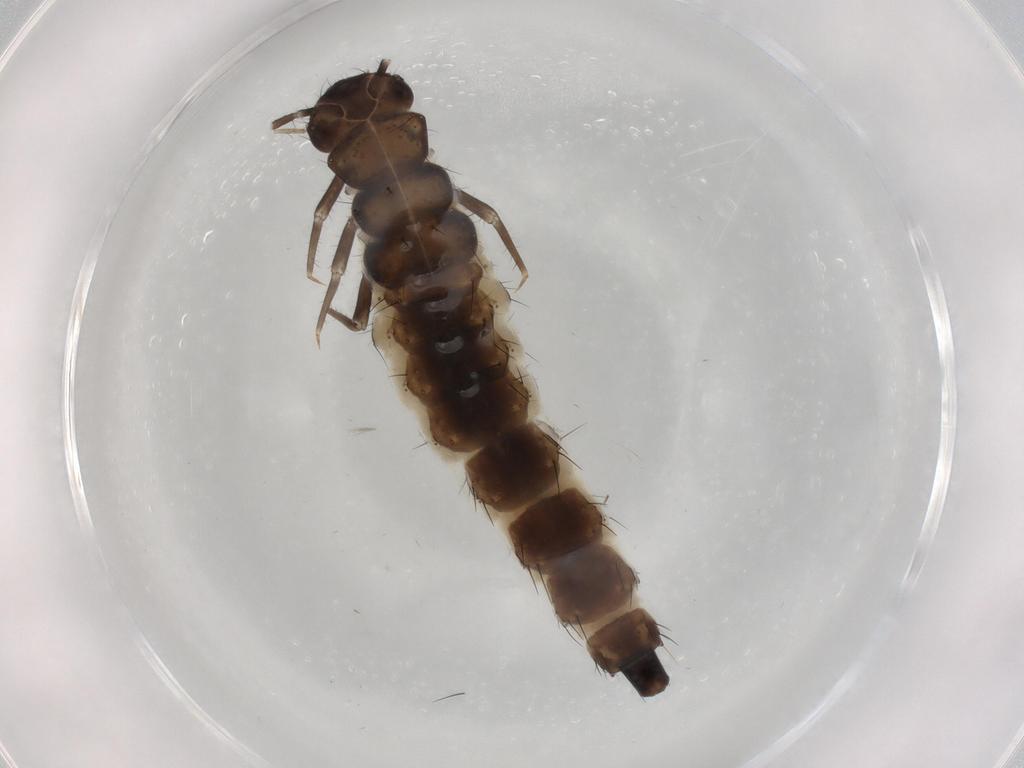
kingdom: Animalia
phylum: Arthropoda
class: Insecta
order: Coleoptera
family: Silvanidae
